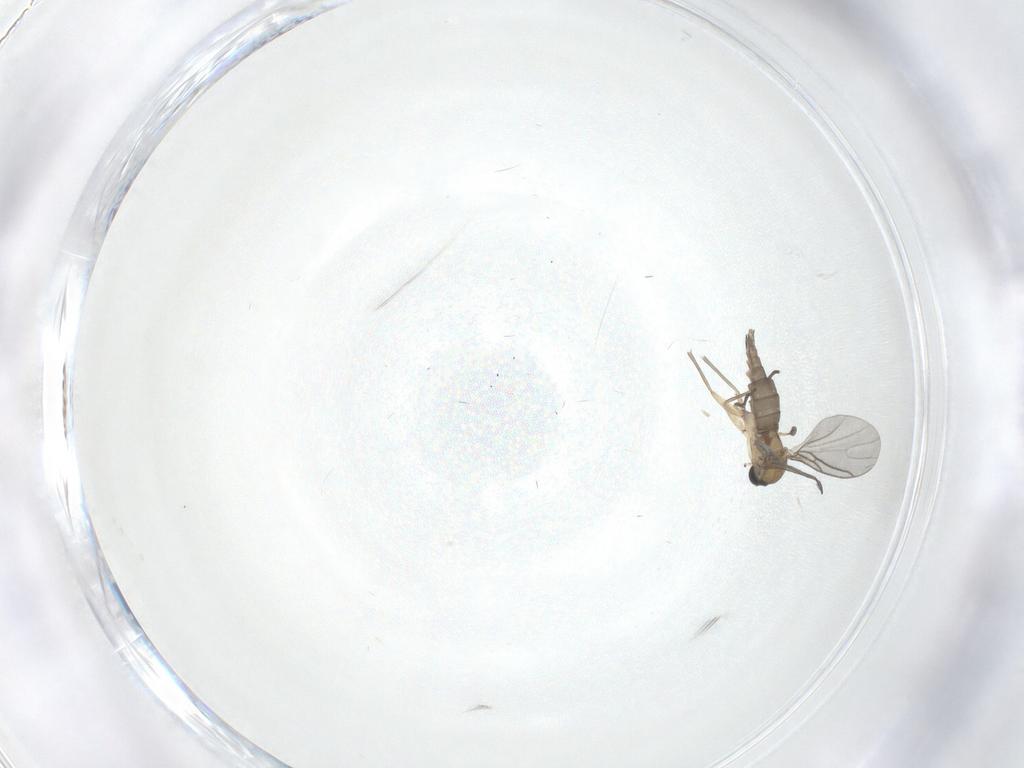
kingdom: Animalia
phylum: Arthropoda
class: Insecta
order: Diptera
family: Sciaridae
